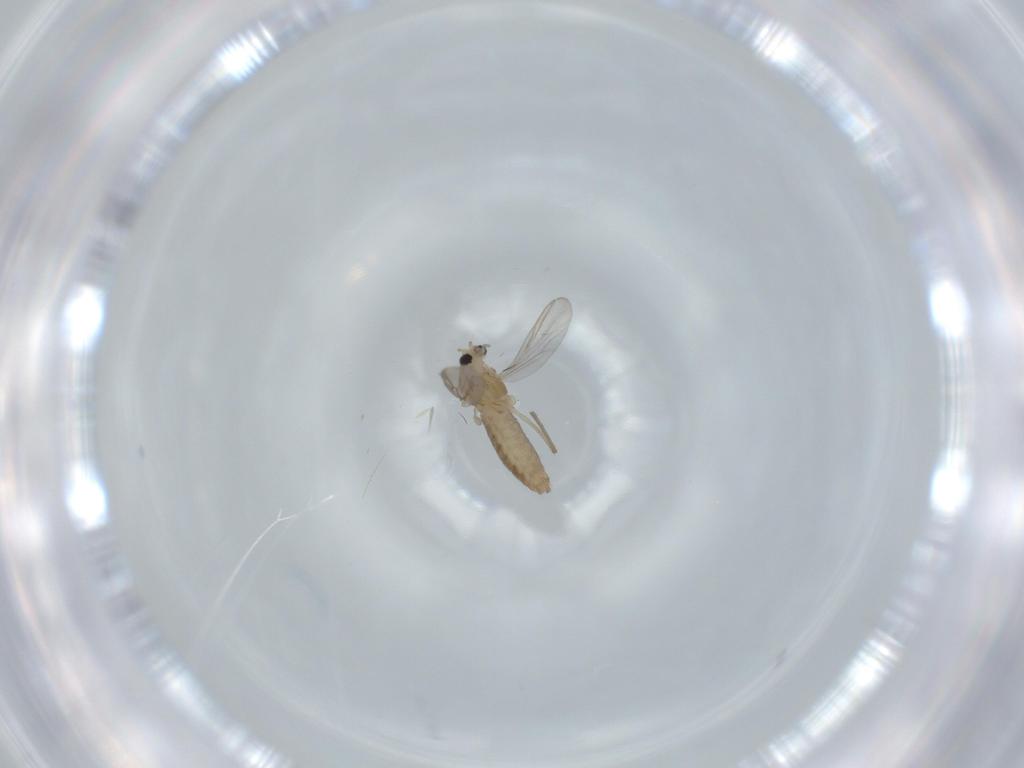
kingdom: Animalia
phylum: Arthropoda
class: Insecta
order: Diptera
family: Chironomidae
